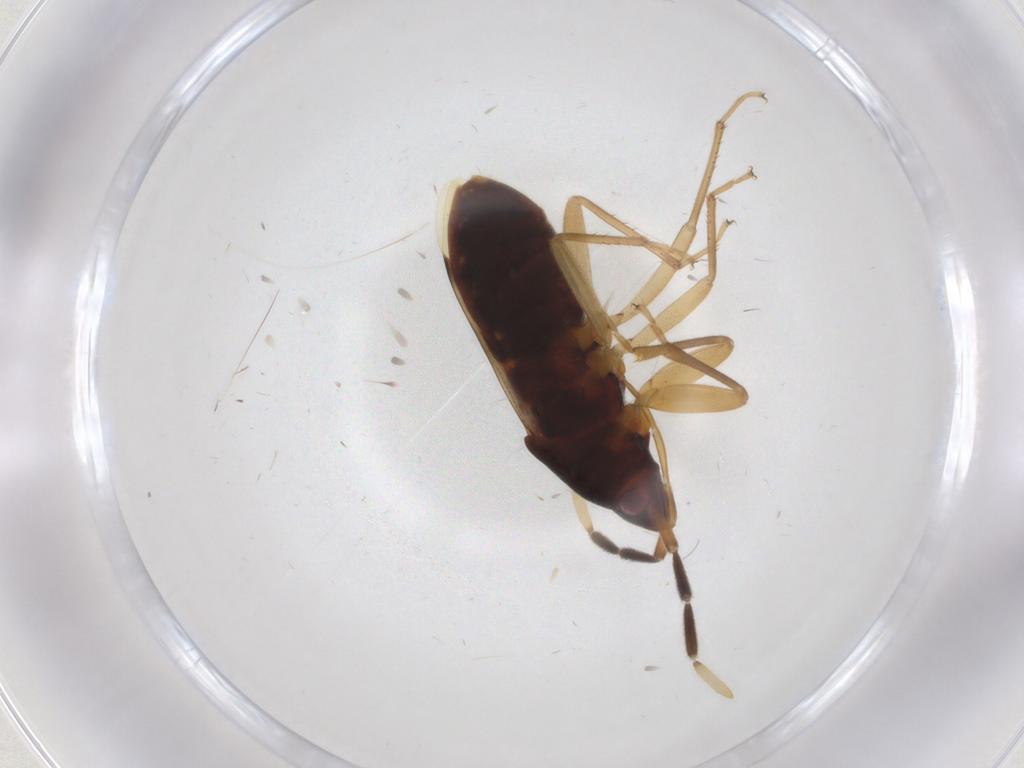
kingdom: Animalia
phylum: Arthropoda
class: Insecta
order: Hemiptera
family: Rhyparochromidae
